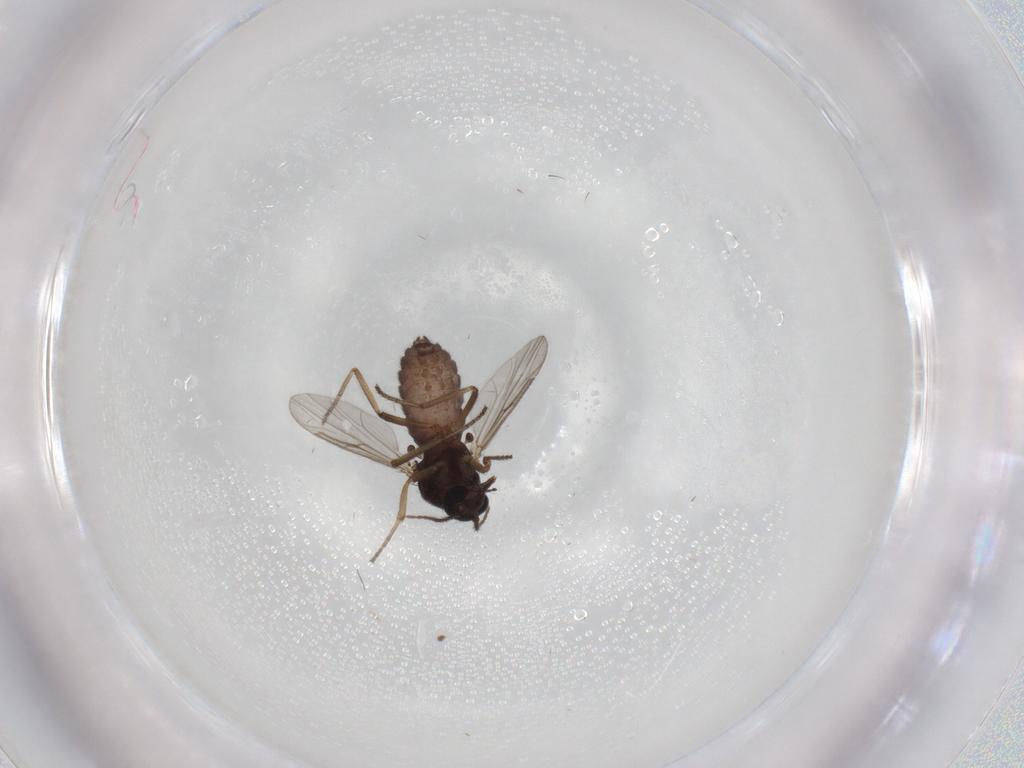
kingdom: Animalia
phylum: Arthropoda
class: Insecta
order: Diptera
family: Ceratopogonidae
